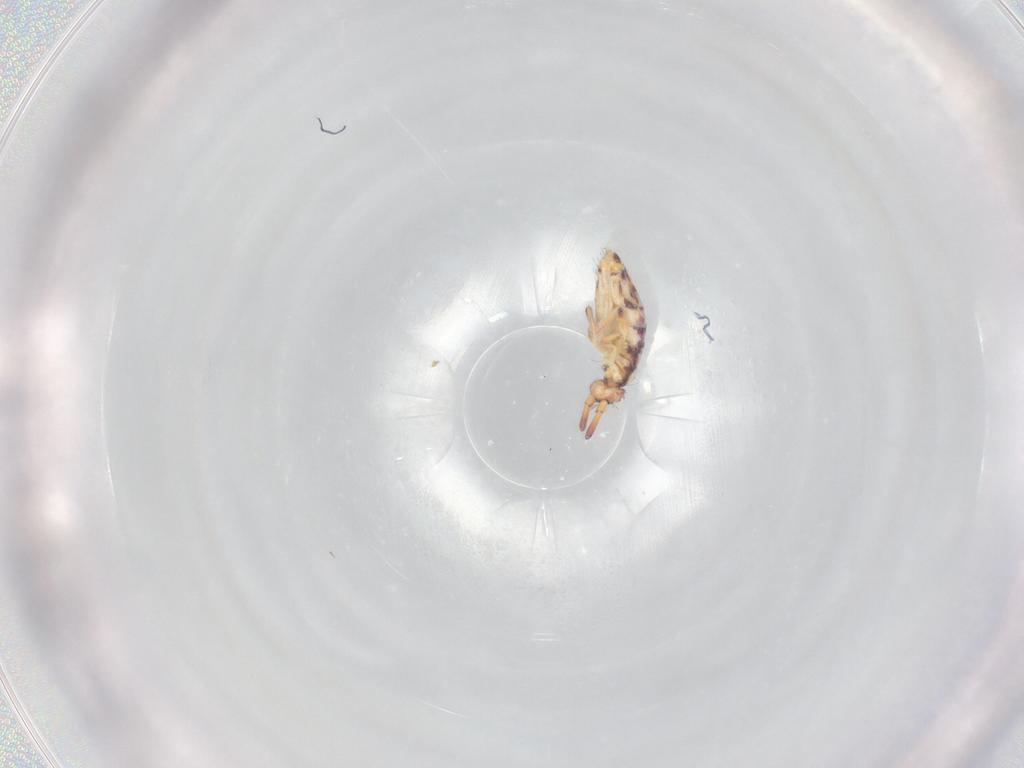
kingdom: Animalia
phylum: Arthropoda
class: Collembola
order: Entomobryomorpha
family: Entomobryidae
